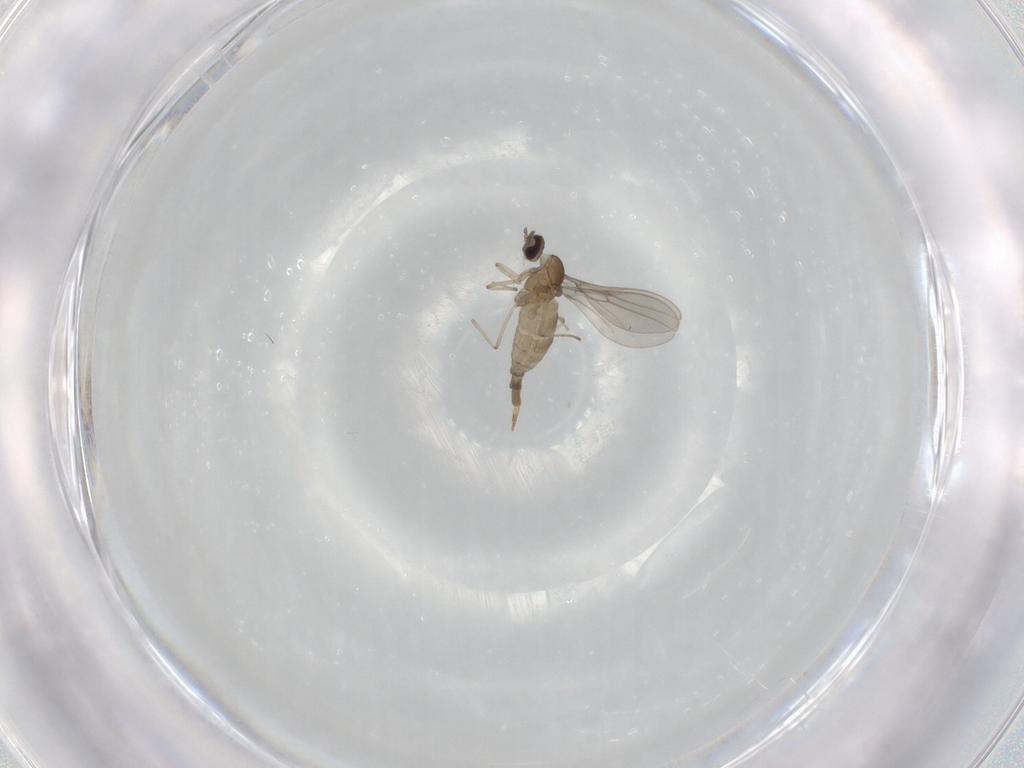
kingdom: Animalia
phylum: Arthropoda
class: Insecta
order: Diptera
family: Cecidomyiidae
